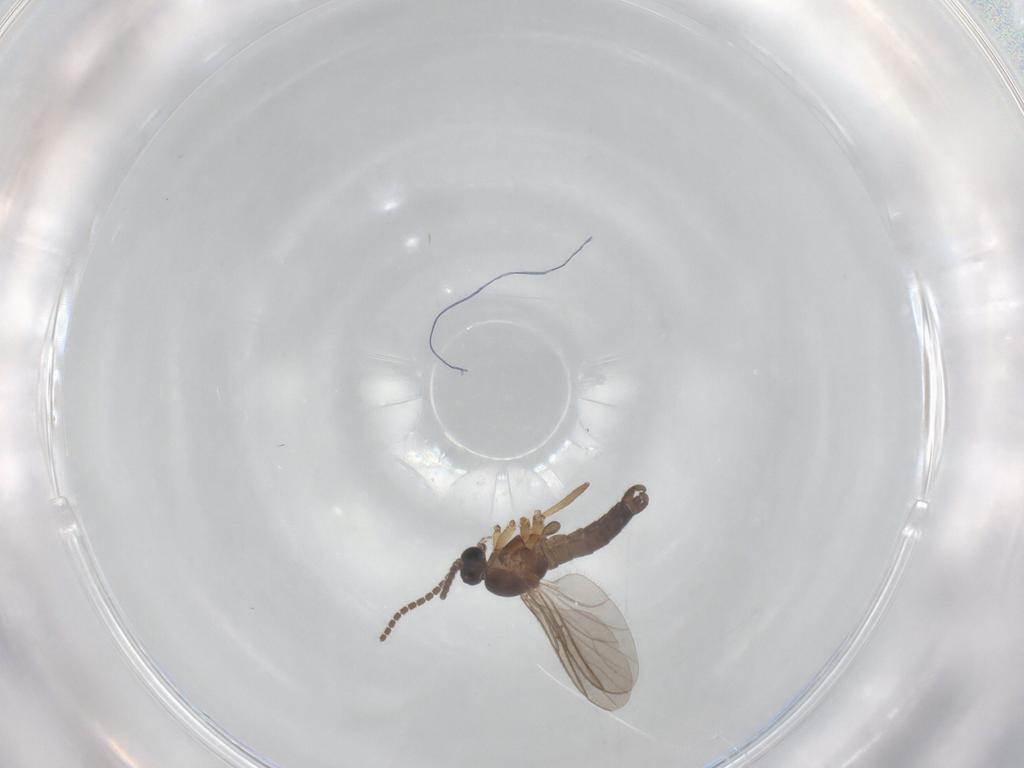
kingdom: Animalia
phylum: Arthropoda
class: Insecta
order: Diptera
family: Sciaridae
